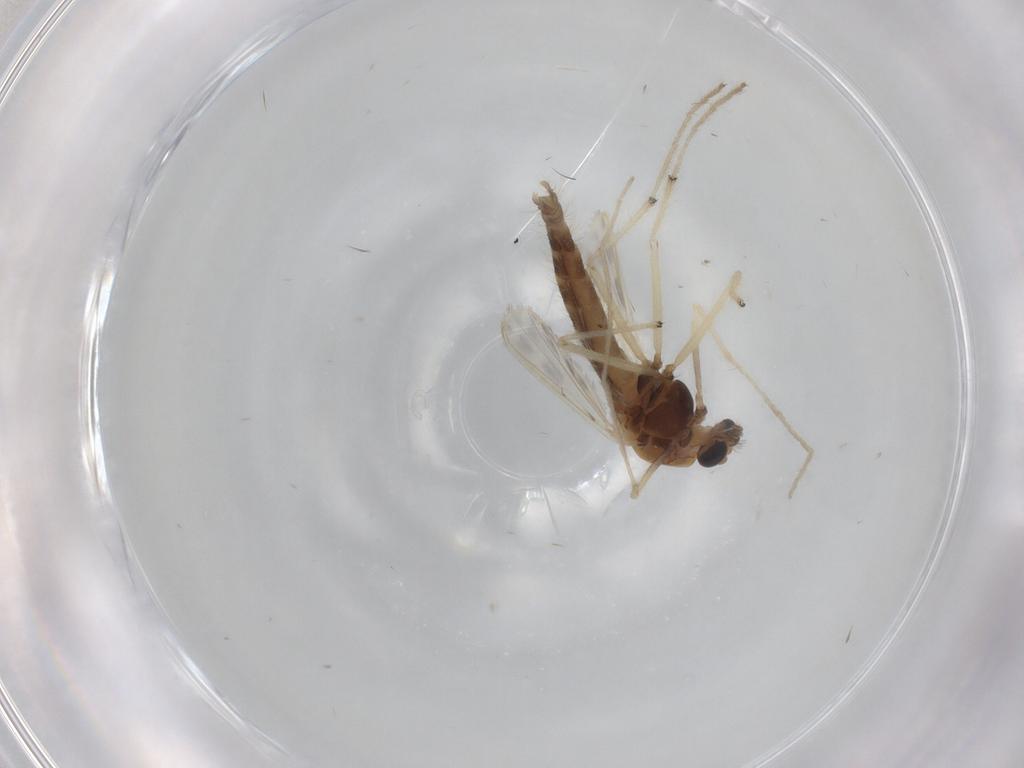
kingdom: Animalia
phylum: Arthropoda
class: Insecta
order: Diptera
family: Chironomidae
